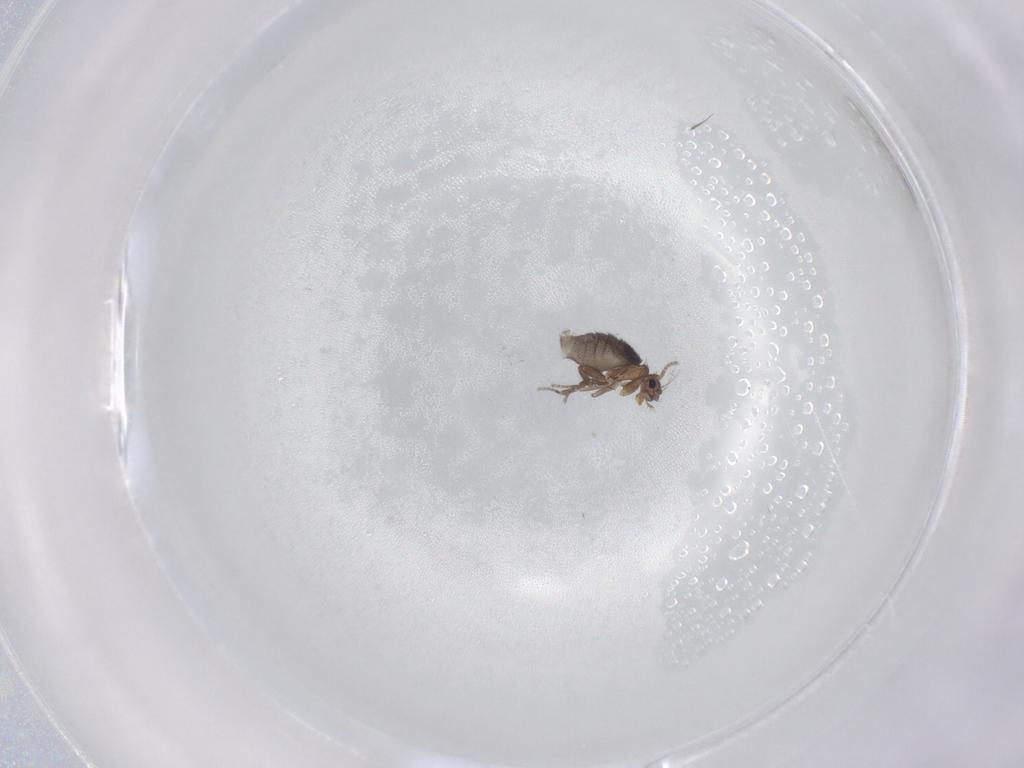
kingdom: Animalia
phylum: Arthropoda
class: Insecta
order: Diptera
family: Phoridae
